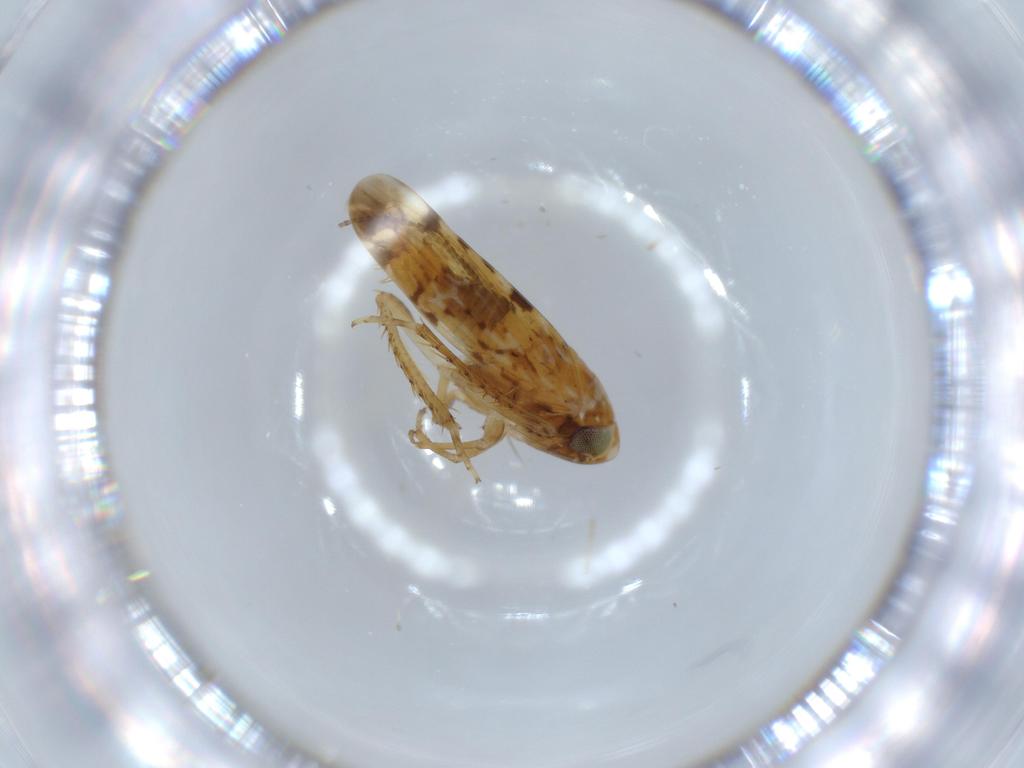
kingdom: Animalia
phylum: Arthropoda
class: Insecta
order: Hemiptera
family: Cicadellidae
